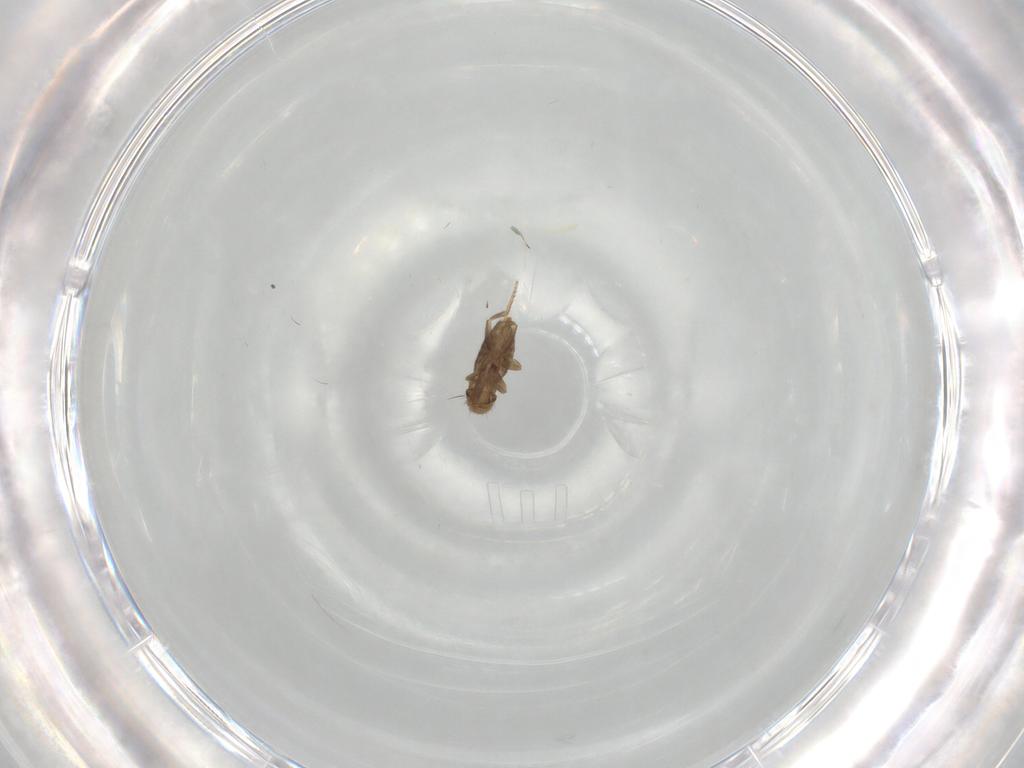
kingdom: Animalia
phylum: Arthropoda
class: Insecta
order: Diptera
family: Phoridae
